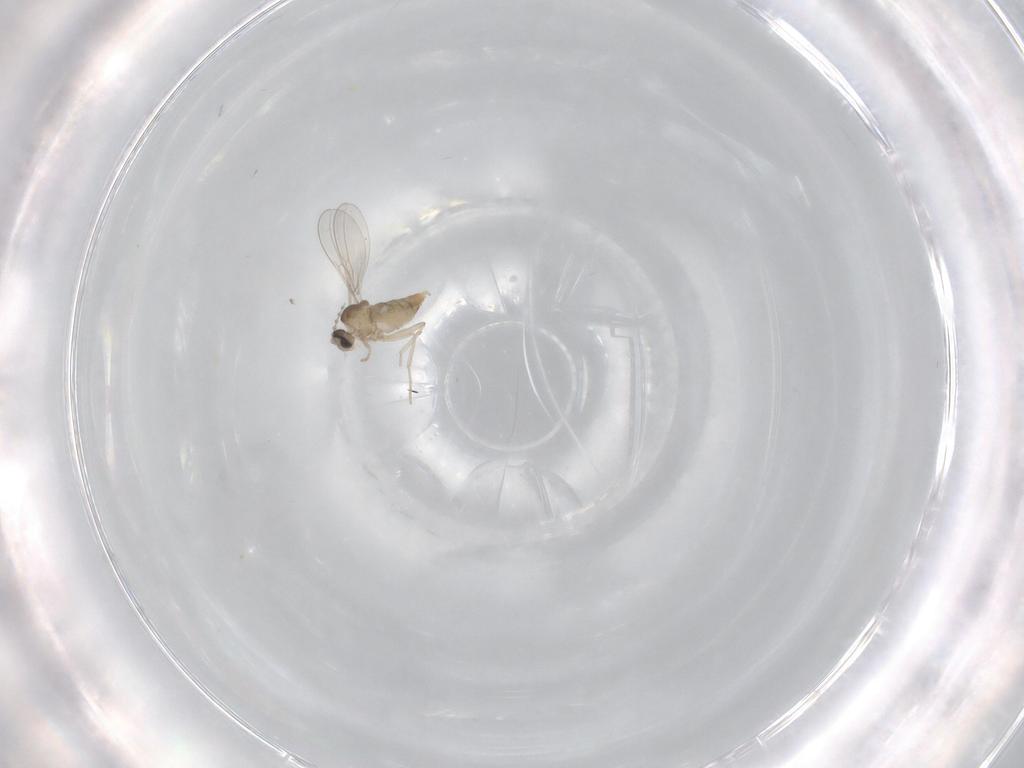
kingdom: Animalia
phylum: Arthropoda
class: Insecta
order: Diptera
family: Cecidomyiidae
